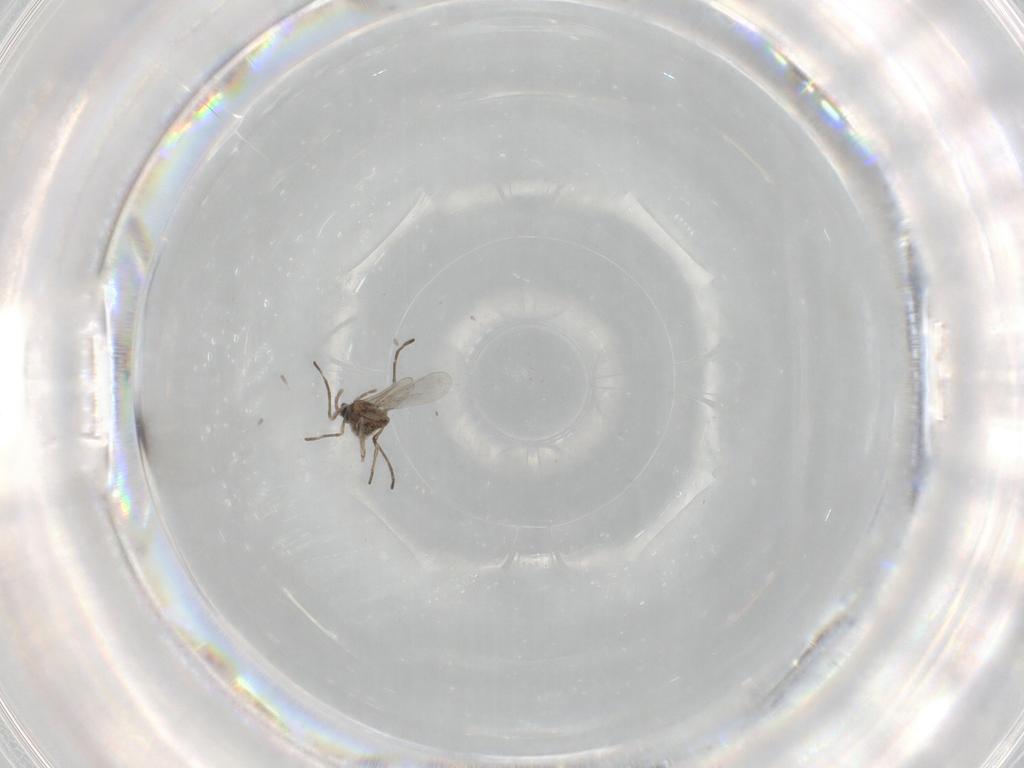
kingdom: Animalia
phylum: Arthropoda
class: Insecta
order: Diptera
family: Cecidomyiidae
